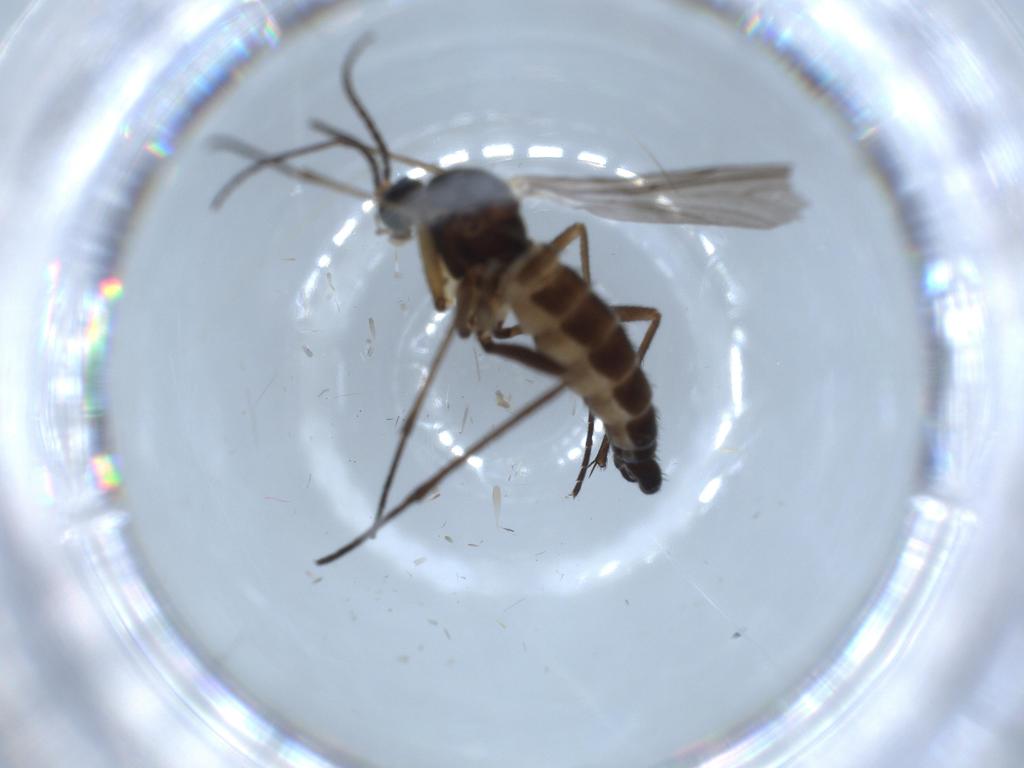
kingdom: Animalia
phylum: Arthropoda
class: Insecta
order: Diptera
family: Sciaridae
